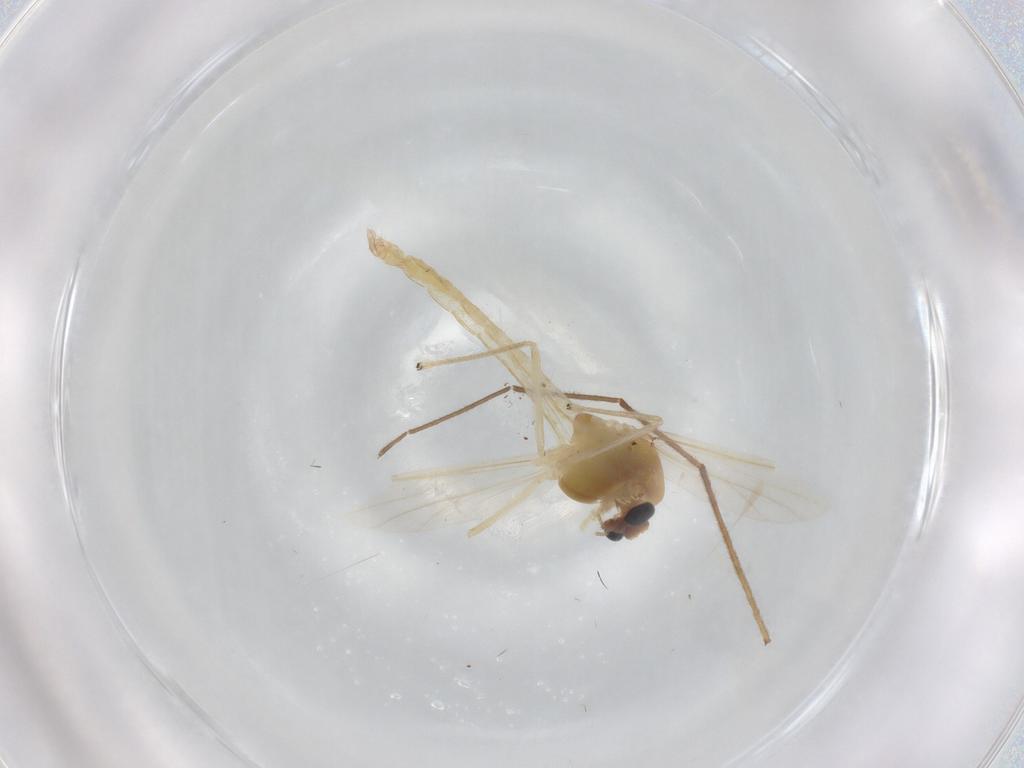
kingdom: Animalia
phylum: Arthropoda
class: Insecta
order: Diptera
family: Chironomidae
